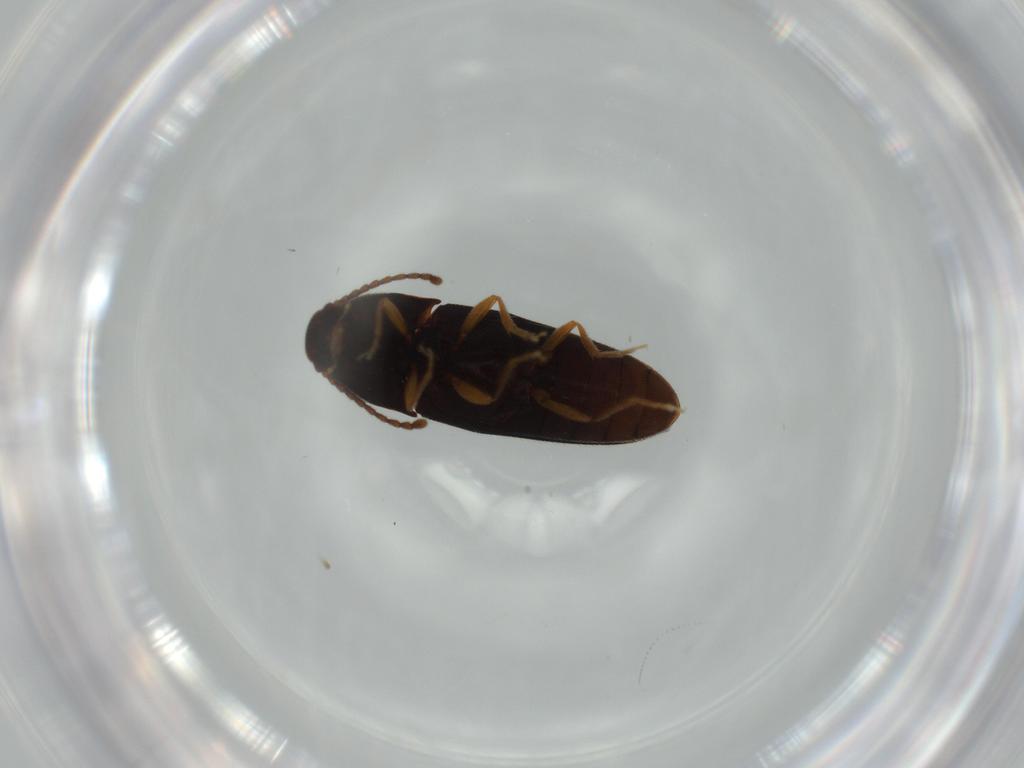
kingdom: Animalia
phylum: Arthropoda
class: Insecta
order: Coleoptera
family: Elateridae
